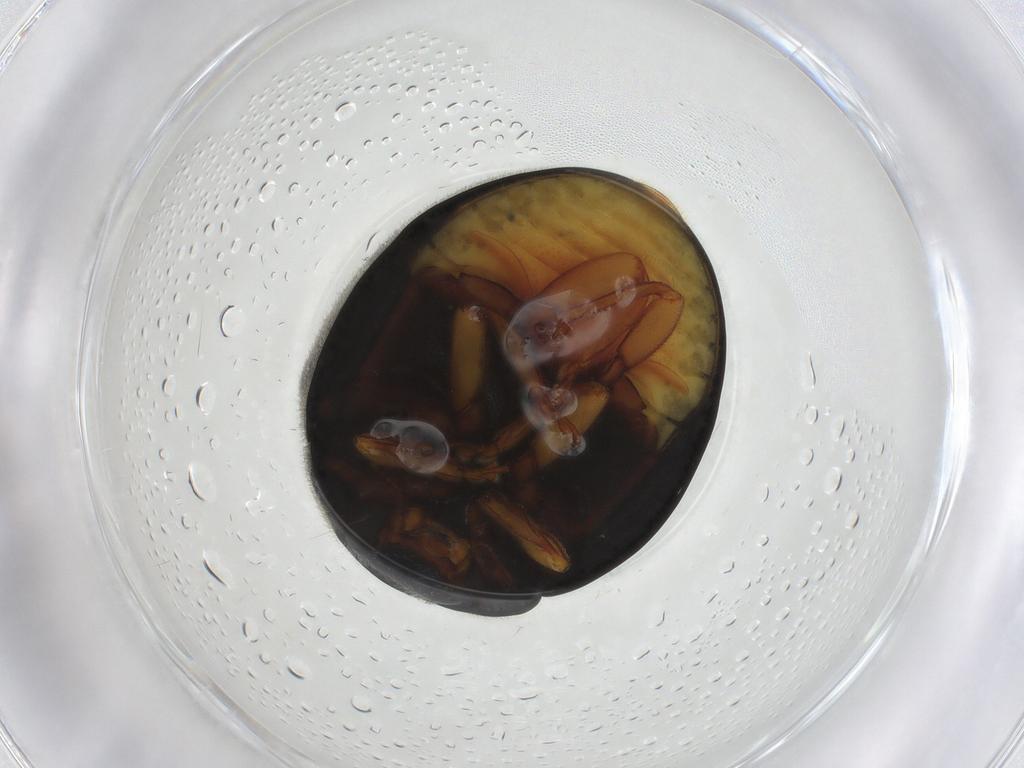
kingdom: Animalia
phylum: Arthropoda
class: Insecta
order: Coleoptera
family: Coccinellidae
